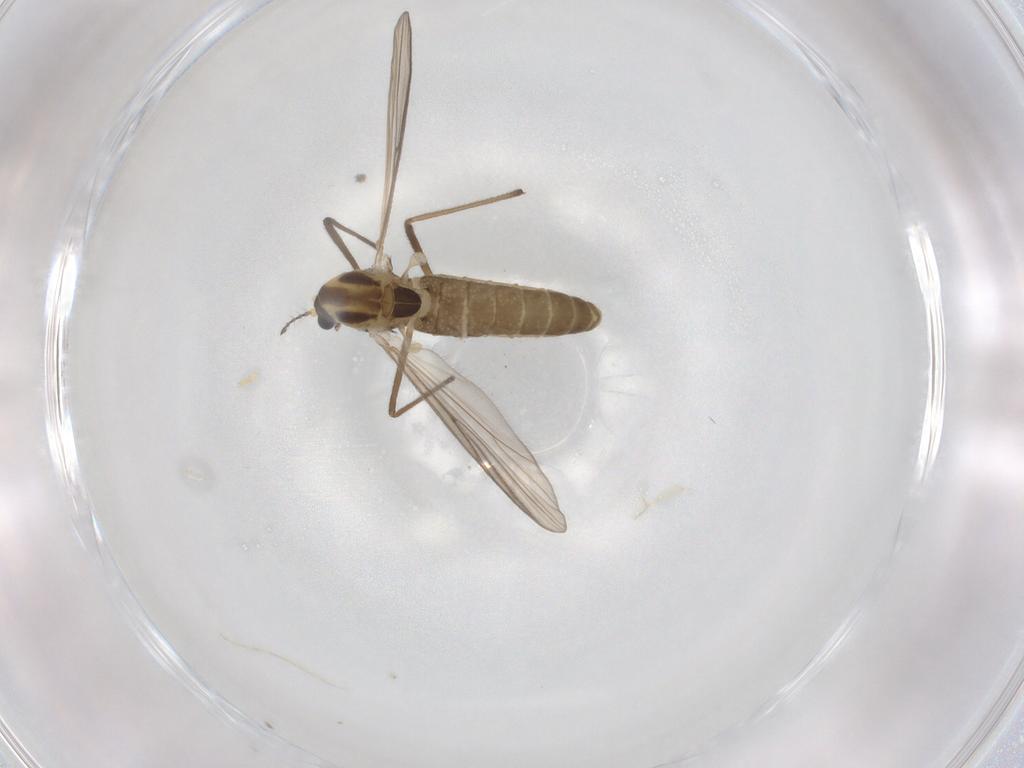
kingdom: Animalia
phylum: Arthropoda
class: Insecta
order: Diptera
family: Chironomidae
